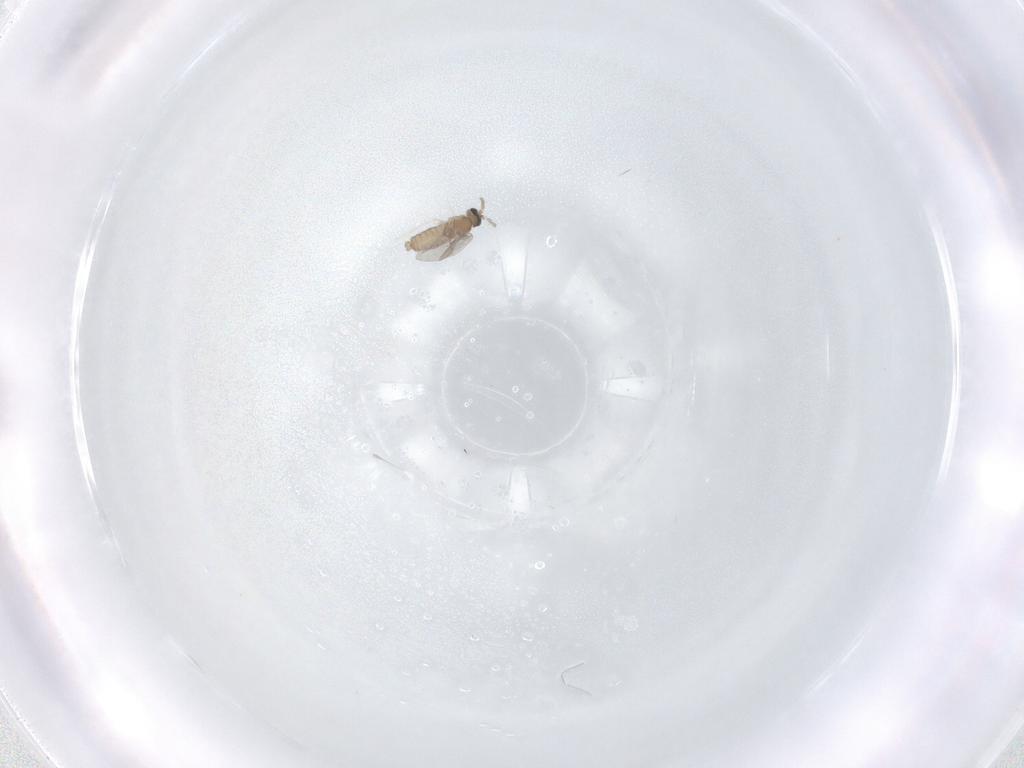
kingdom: Animalia
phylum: Arthropoda
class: Insecta
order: Diptera
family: Cecidomyiidae
